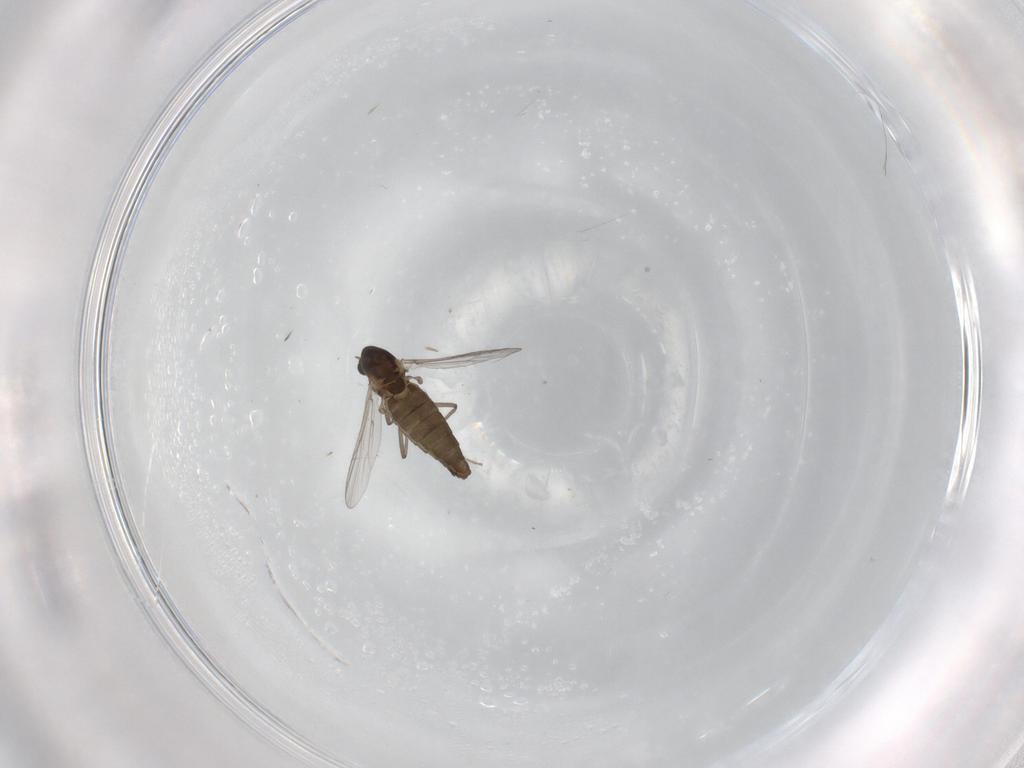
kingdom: Animalia
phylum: Arthropoda
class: Insecta
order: Diptera
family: Chironomidae
